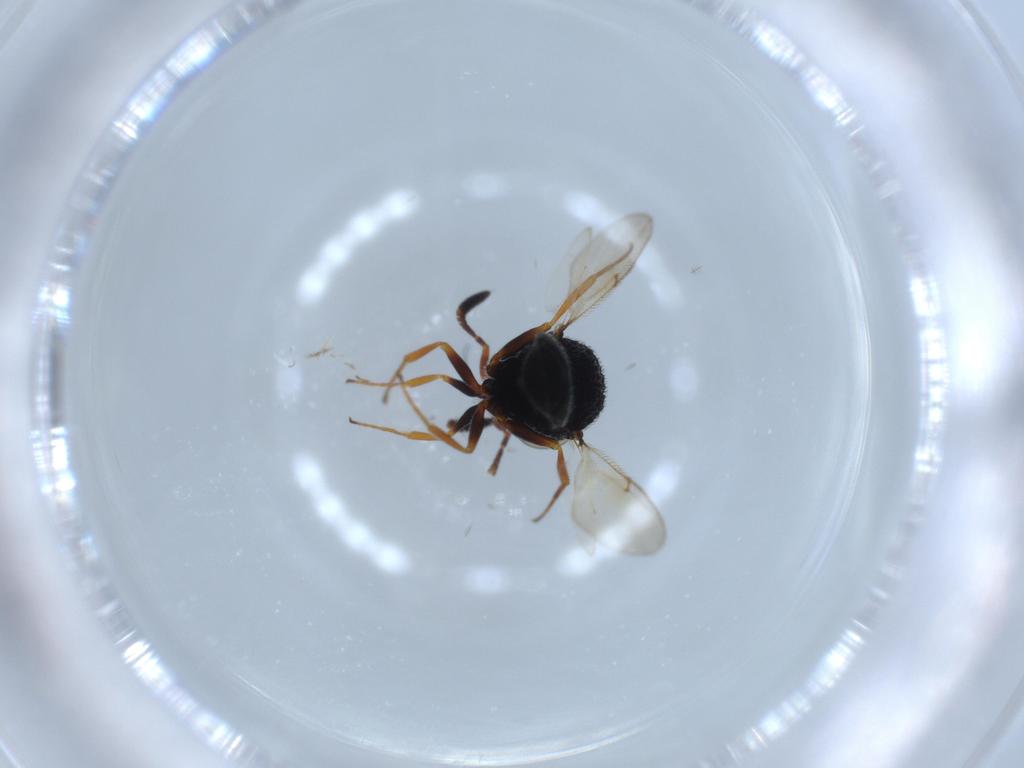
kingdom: Animalia
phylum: Arthropoda
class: Insecta
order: Hymenoptera
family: Scelionidae
